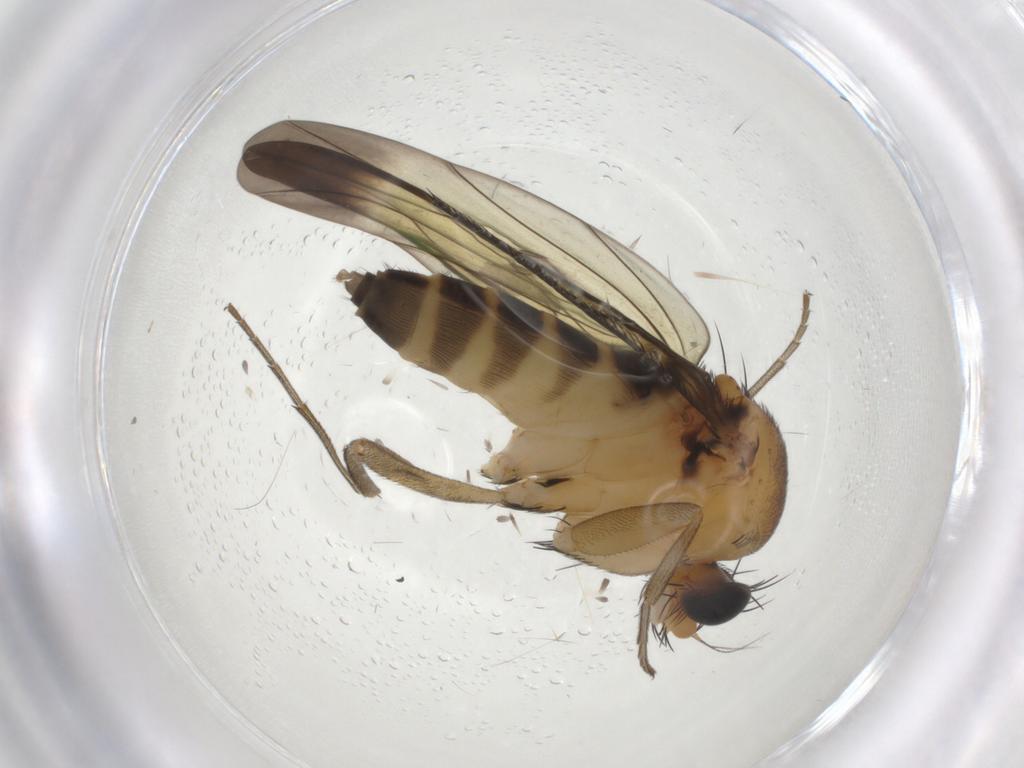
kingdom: Animalia
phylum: Arthropoda
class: Insecta
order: Diptera
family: Phoridae
